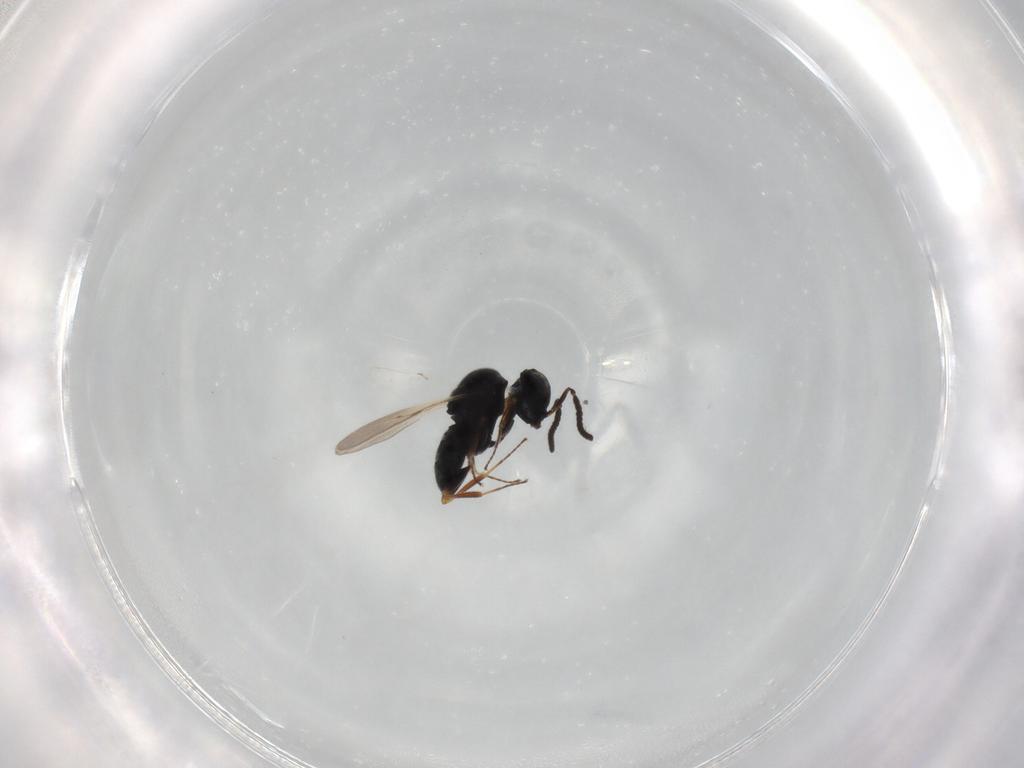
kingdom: Animalia
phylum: Arthropoda
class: Insecta
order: Hymenoptera
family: Scelionidae
